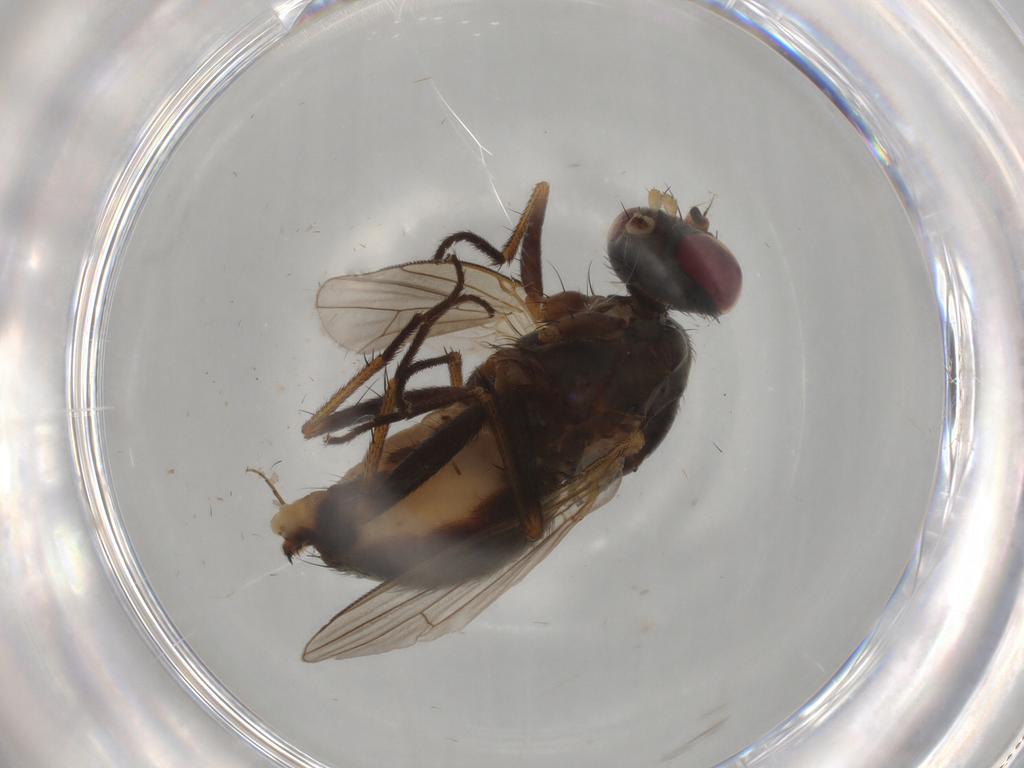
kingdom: Animalia
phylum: Arthropoda
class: Insecta
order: Diptera
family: Muscidae
